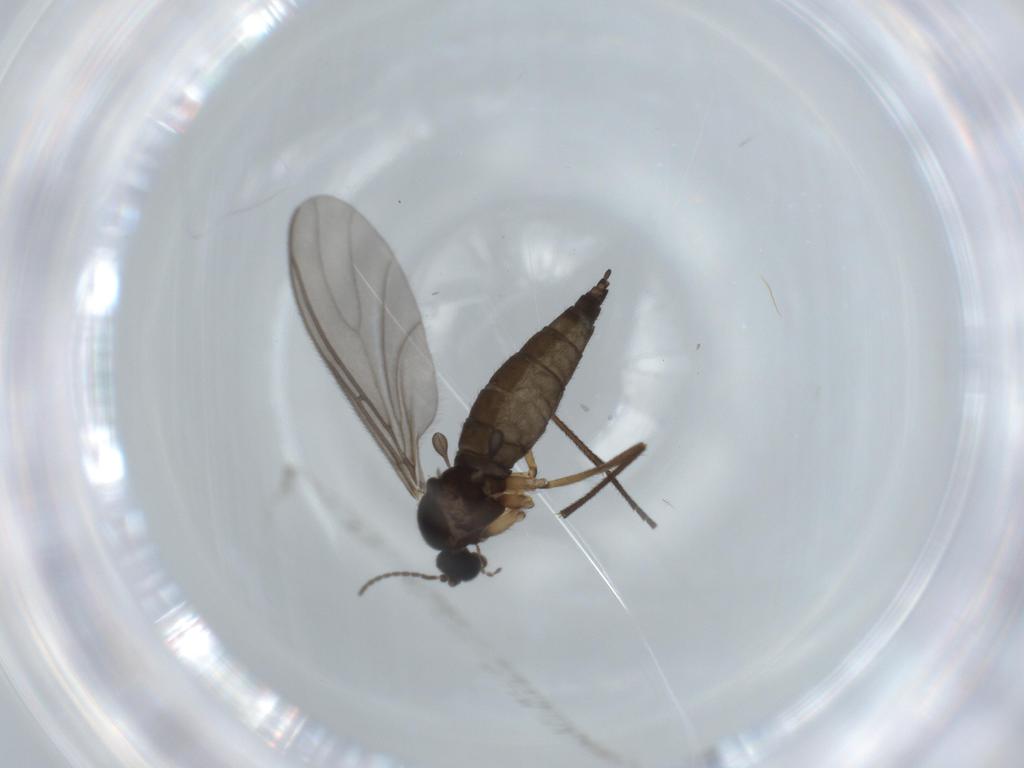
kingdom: Animalia
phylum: Arthropoda
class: Insecta
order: Diptera
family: Sciaridae
